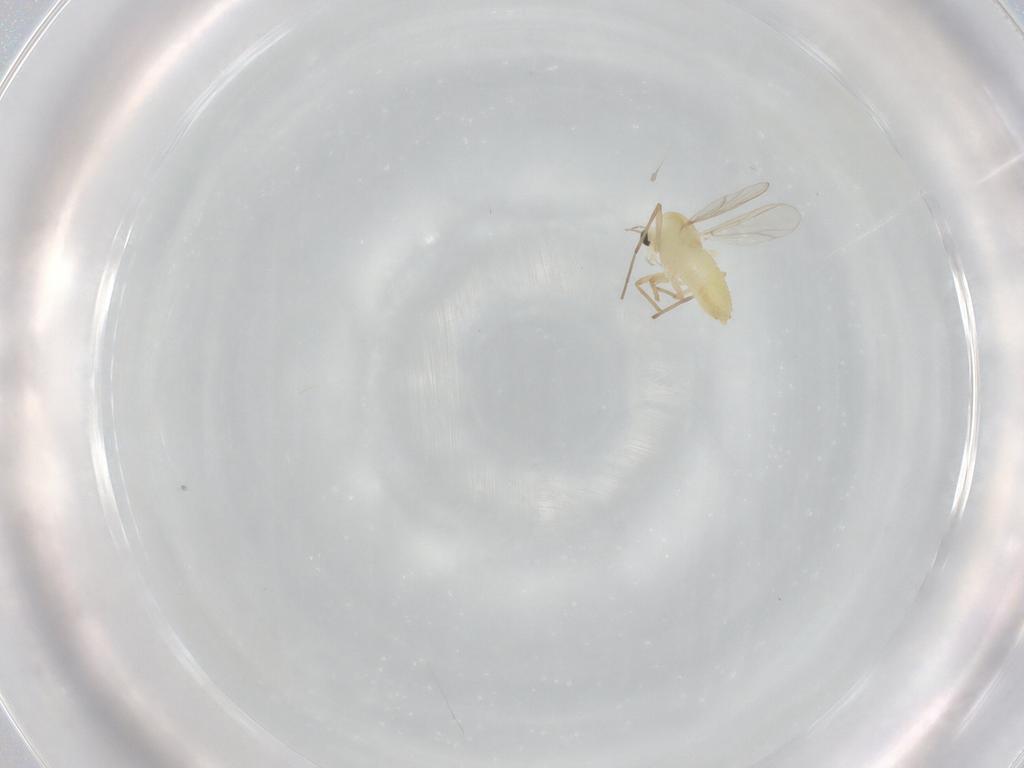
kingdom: Animalia
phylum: Arthropoda
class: Insecta
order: Diptera
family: Chironomidae
